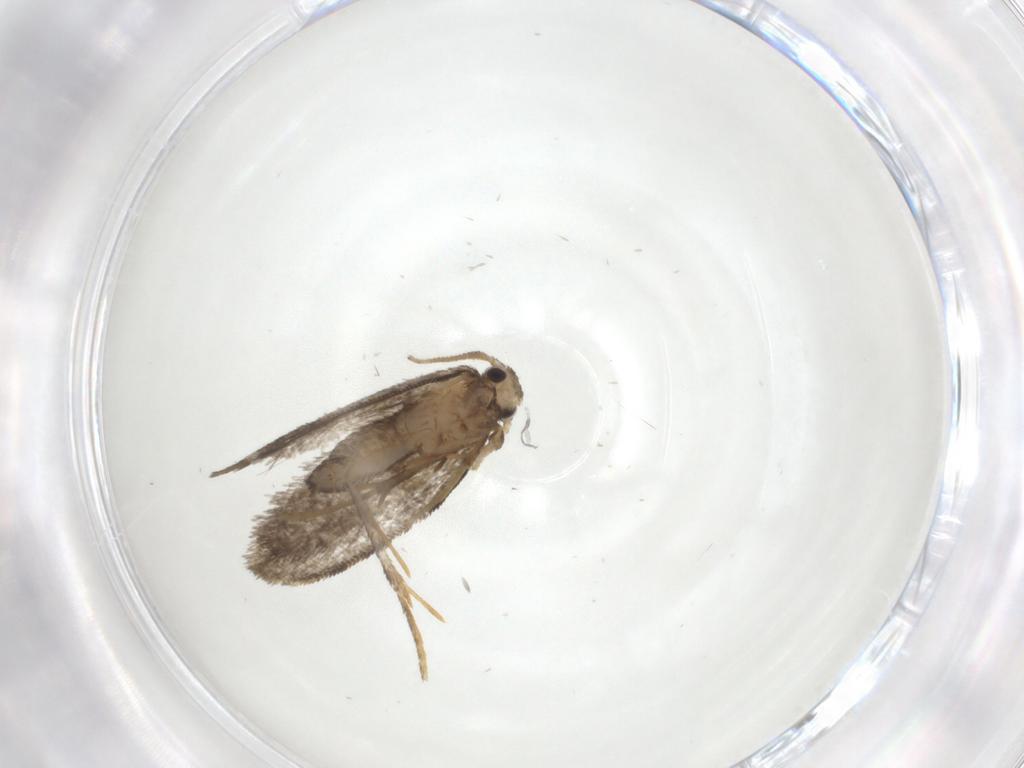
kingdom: Animalia
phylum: Arthropoda
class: Insecta
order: Lepidoptera
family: Psychidae
